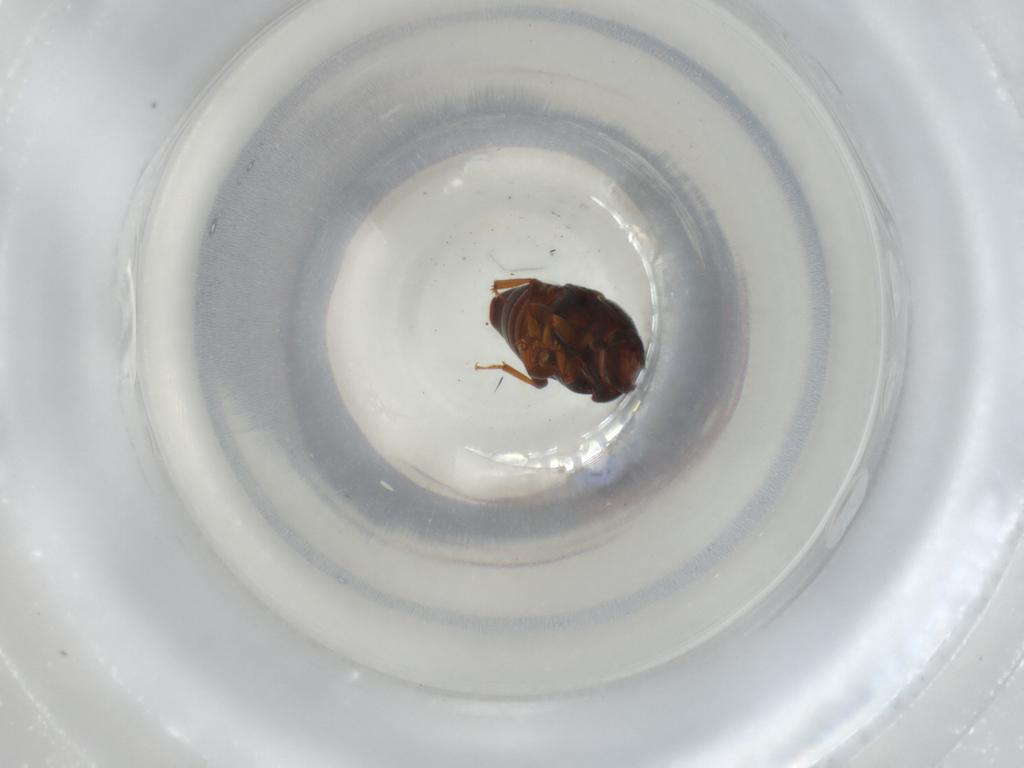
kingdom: Animalia
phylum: Arthropoda
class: Insecta
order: Coleoptera
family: Nitidulidae
